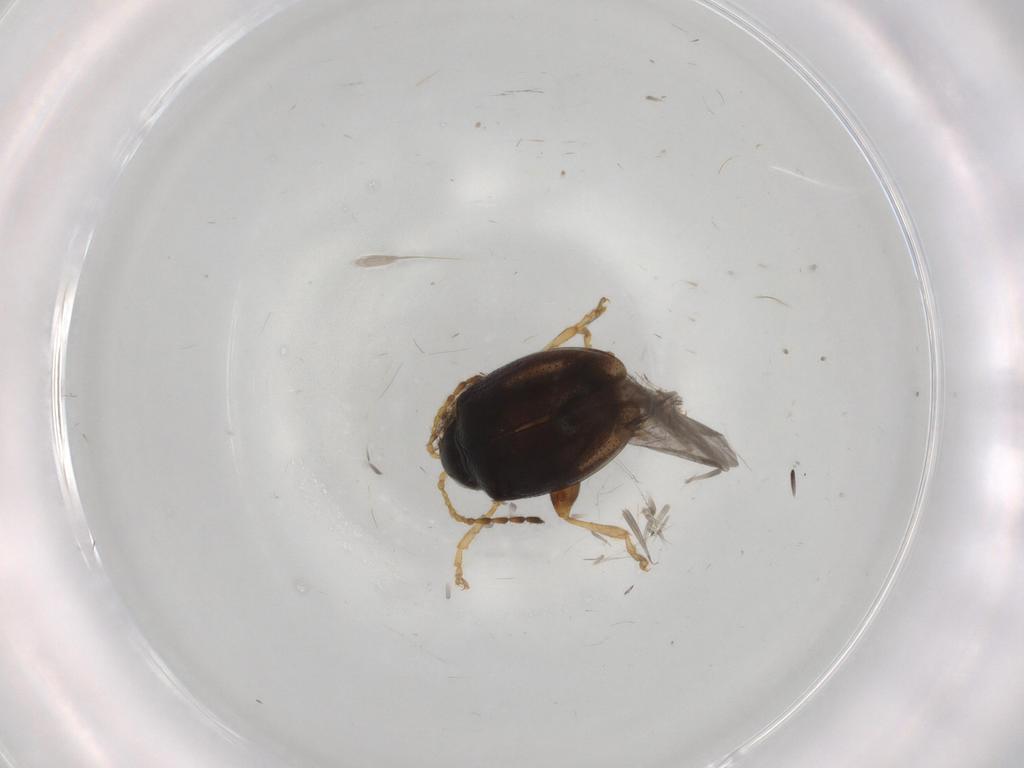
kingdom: Animalia
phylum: Arthropoda
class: Insecta
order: Coleoptera
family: Chrysomelidae
